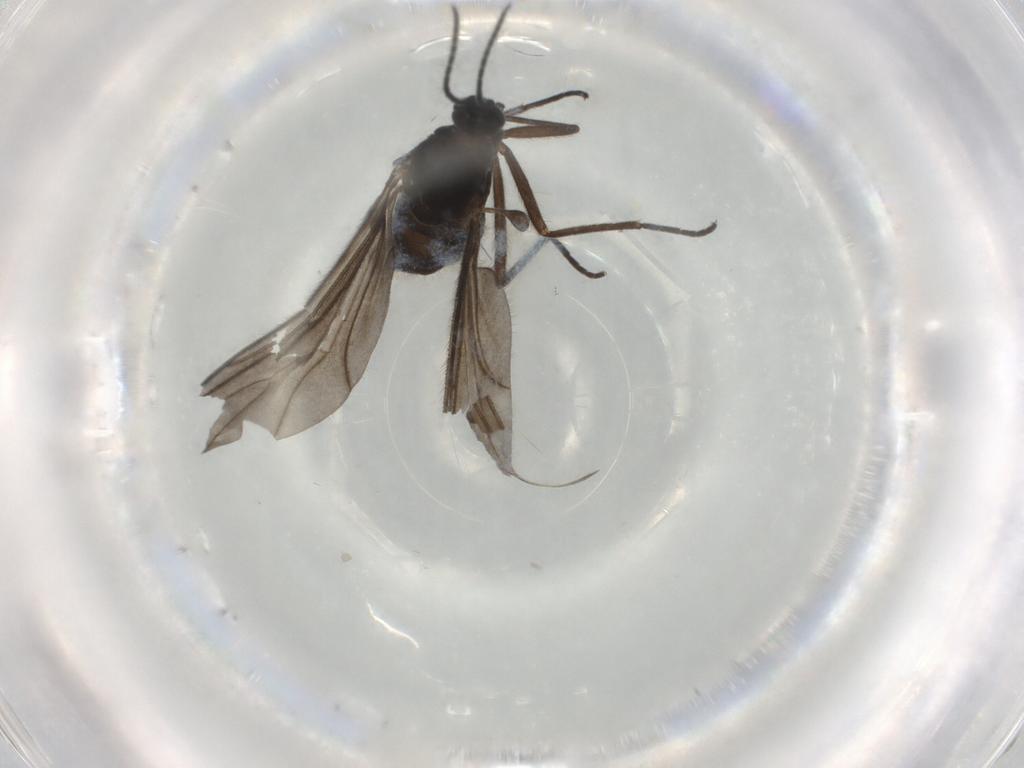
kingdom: Animalia
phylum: Arthropoda
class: Insecta
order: Diptera
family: Sciaridae
